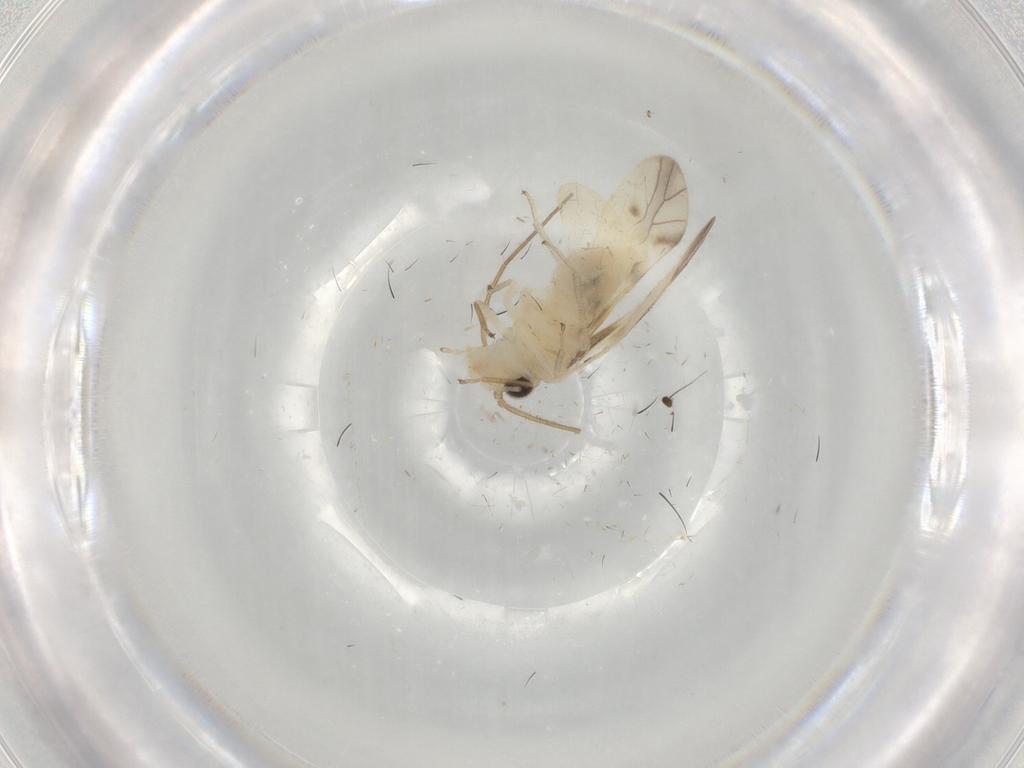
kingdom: Animalia
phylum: Arthropoda
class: Insecta
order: Psocodea
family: Caeciliusidae
